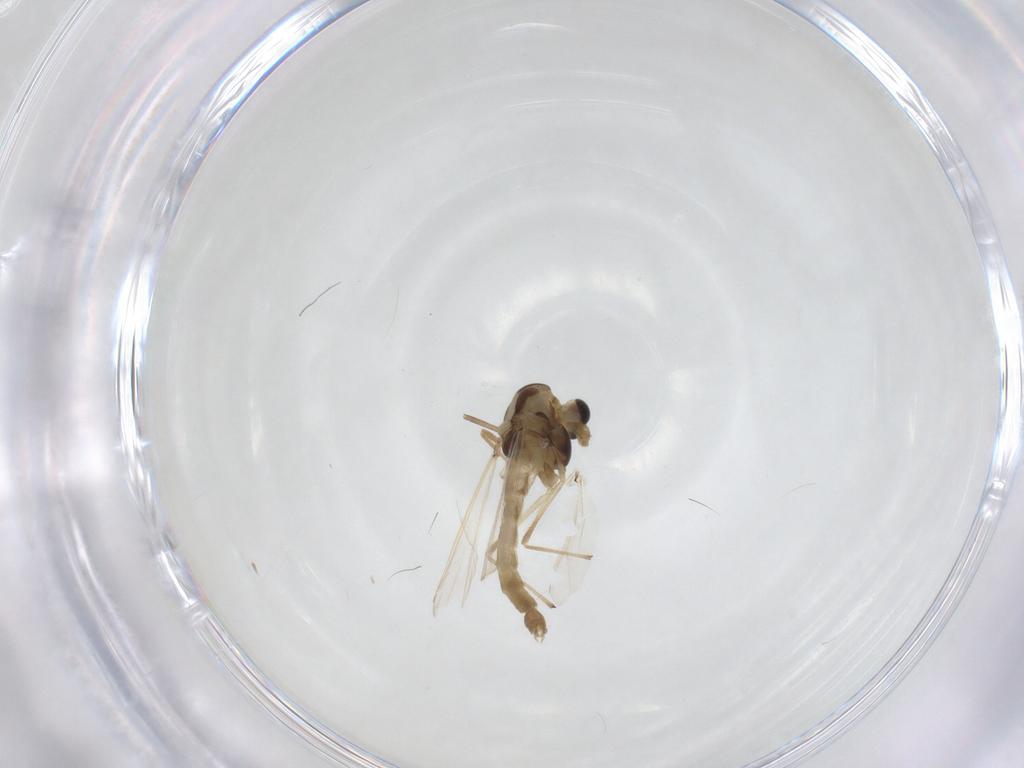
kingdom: Animalia
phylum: Arthropoda
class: Insecta
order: Diptera
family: Chironomidae
